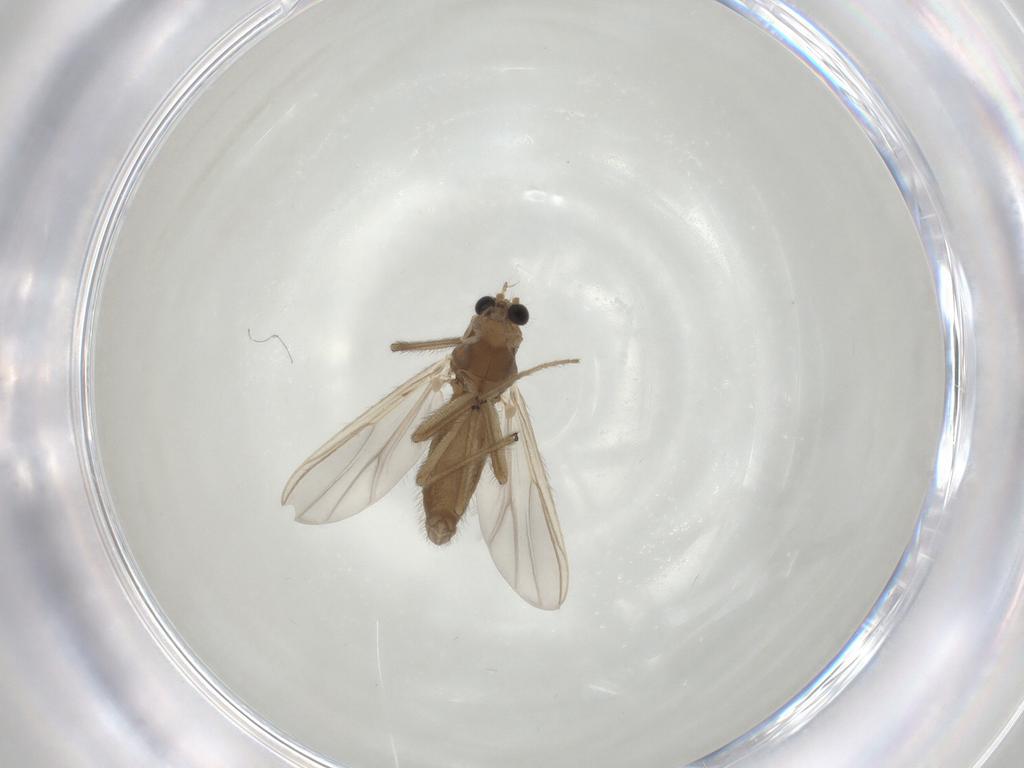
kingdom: Animalia
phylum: Arthropoda
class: Insecta
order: Diptera
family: Chironomidae
